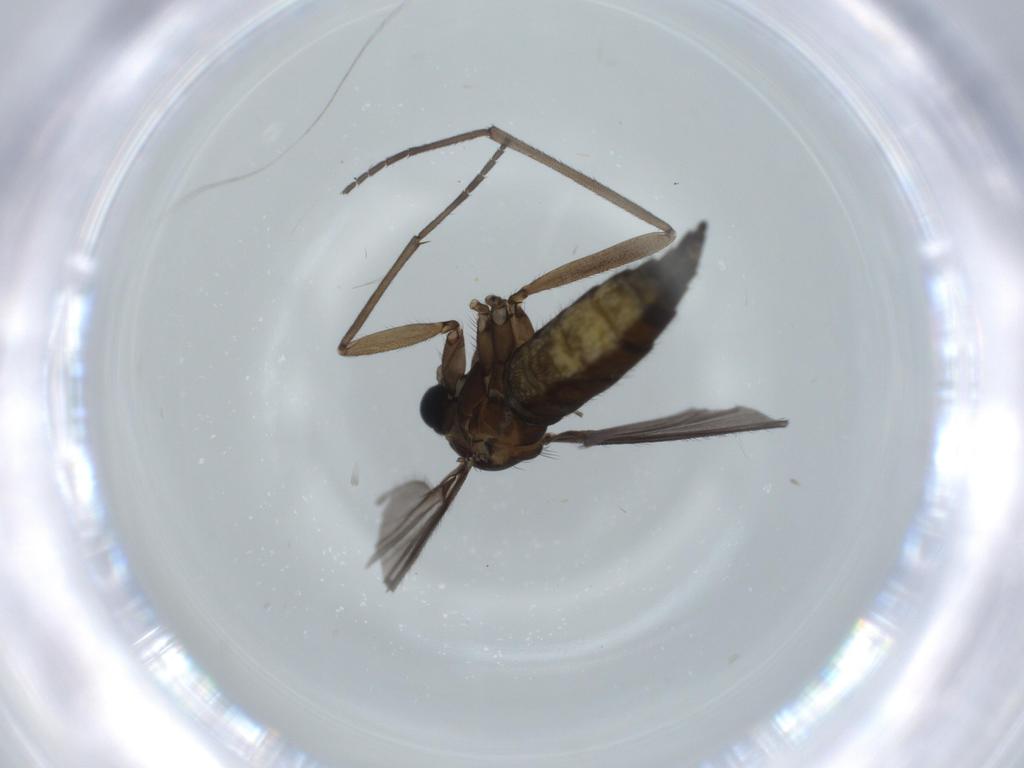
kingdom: Animalia
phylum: Arthropoda
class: Insecta
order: Diptera
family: Sciaridae
